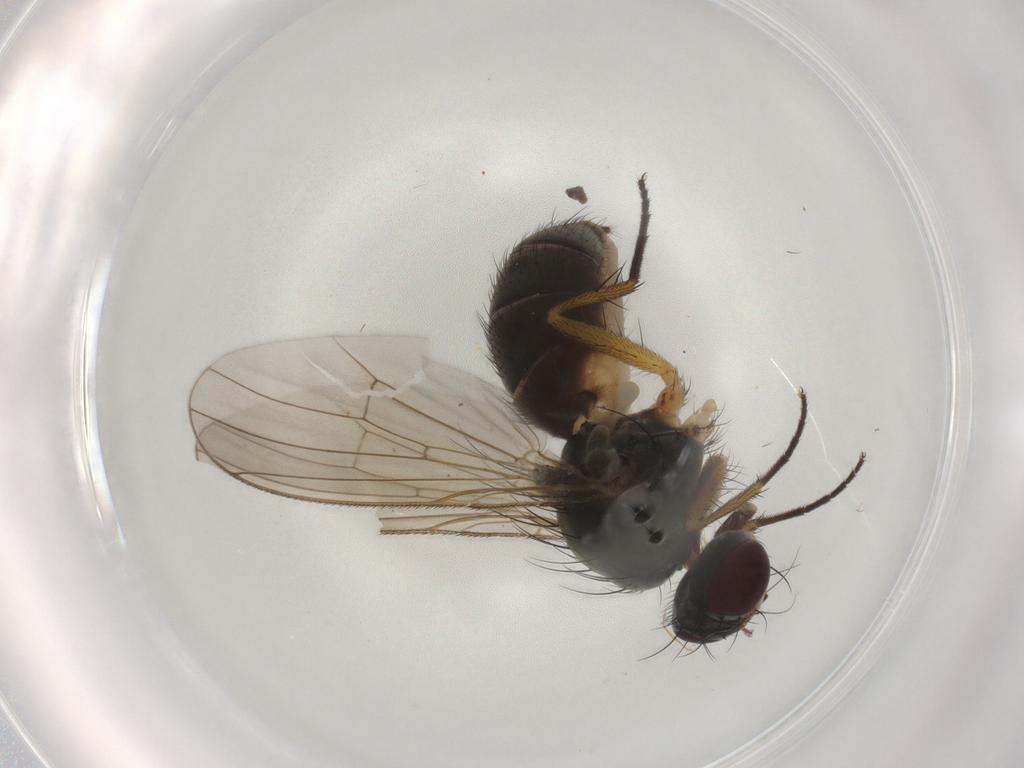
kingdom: Animalia
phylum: Arthropoda
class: Insecta
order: Diptera
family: Muscidae
